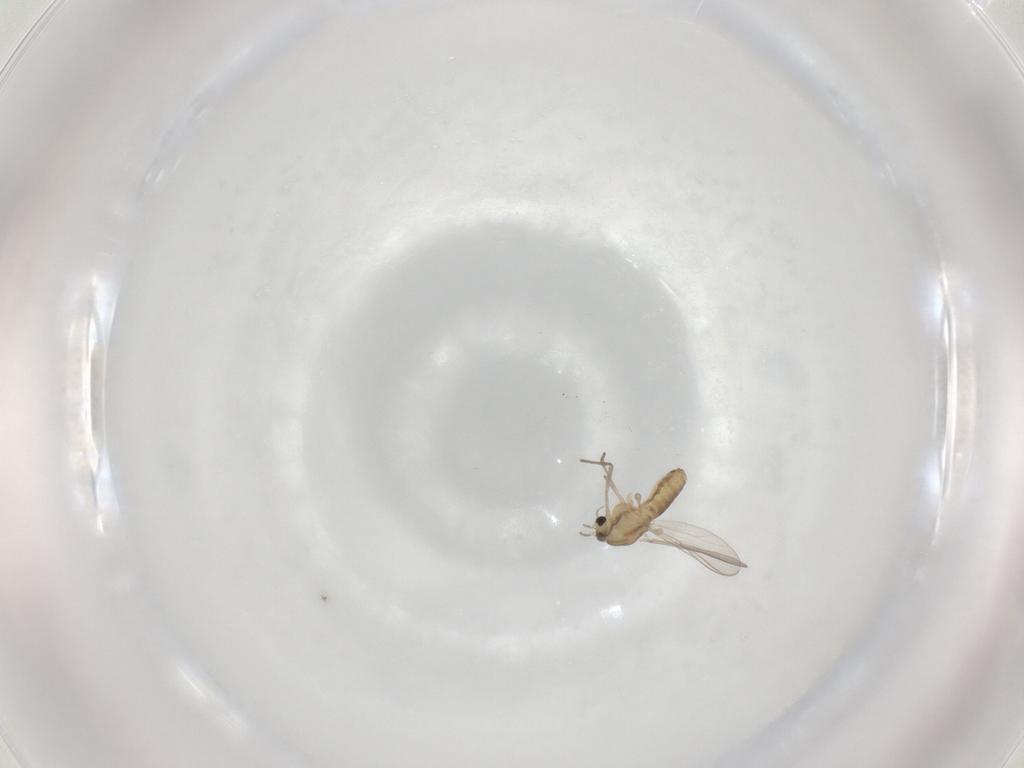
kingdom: Animalia
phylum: Arthropoda
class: Insecta
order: Diptera
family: Chironomidae
